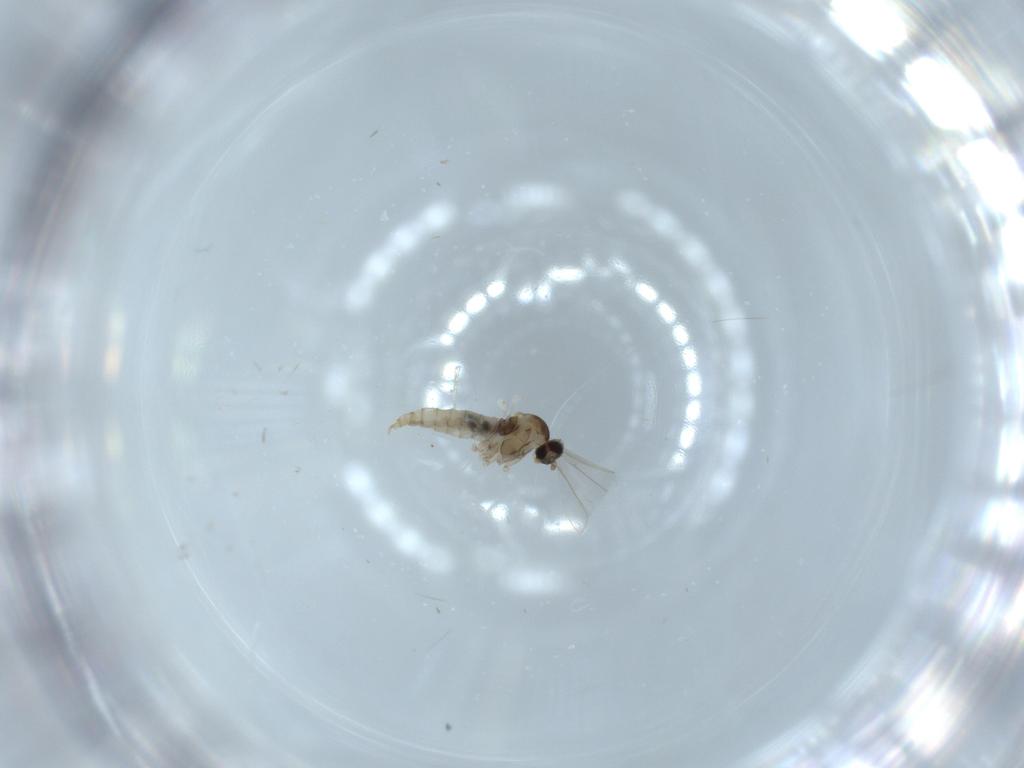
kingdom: Animalia
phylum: Arthropoda
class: Insecta
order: Diptera
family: Cecidomyiidae
